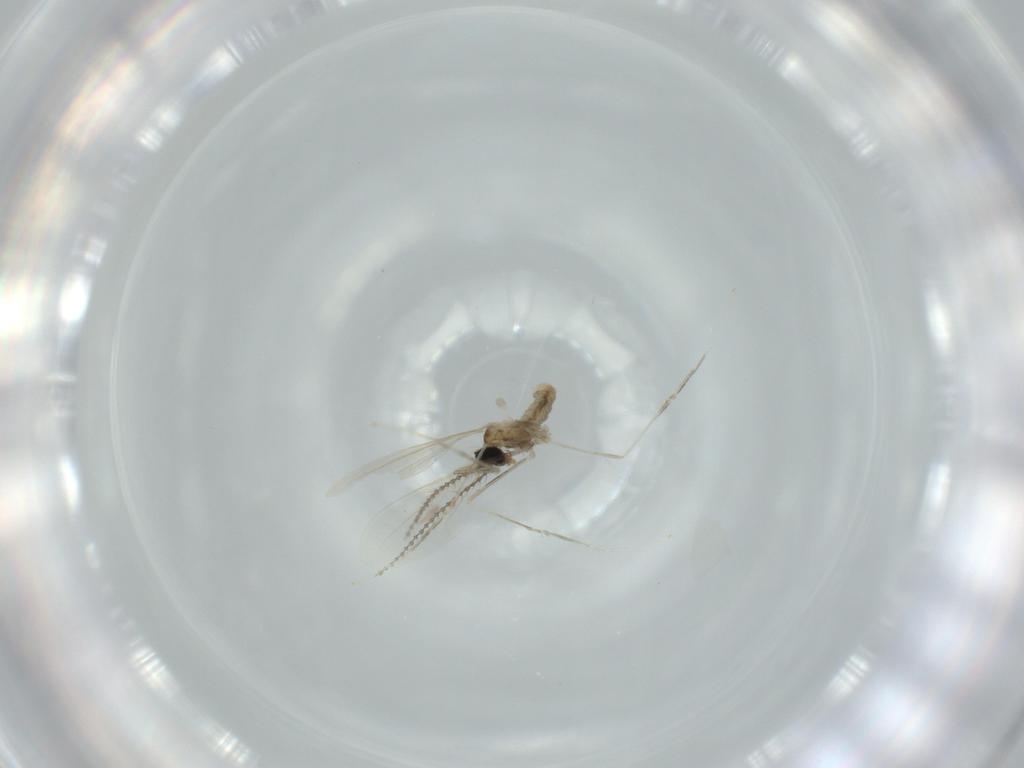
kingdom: Animalia
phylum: Arthropoda
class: Insecta
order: Diptera
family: Cecidomyiidae
